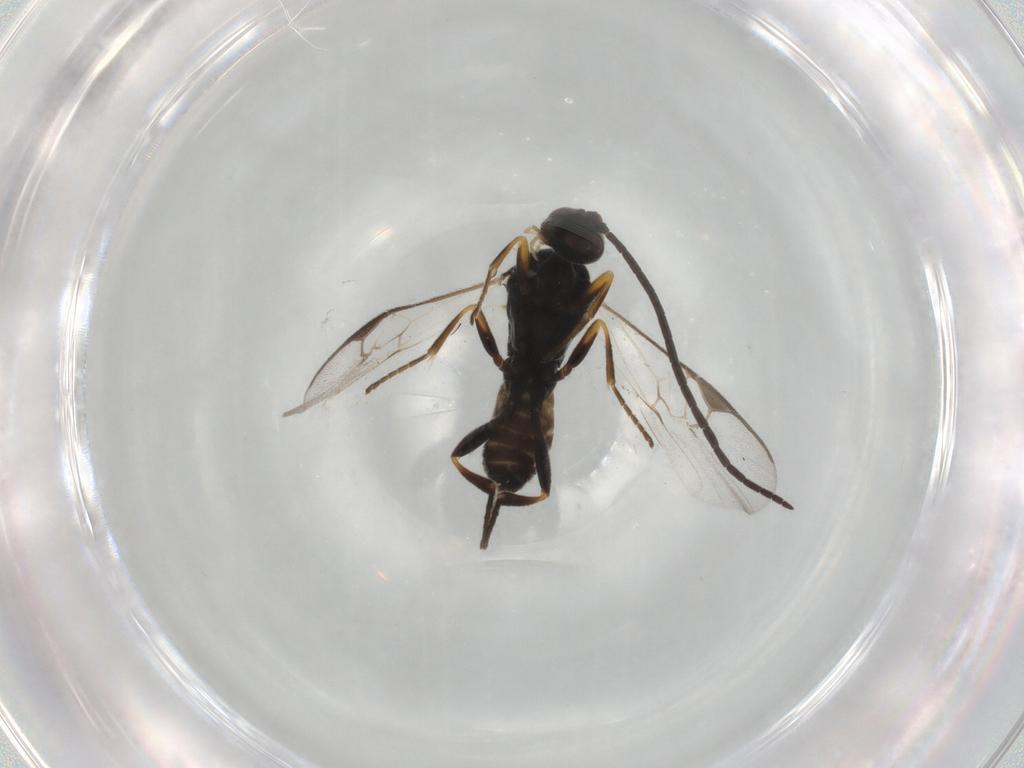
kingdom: Animalia
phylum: Arthropoda
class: Insecta
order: Hymenoptera
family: Braconidae
